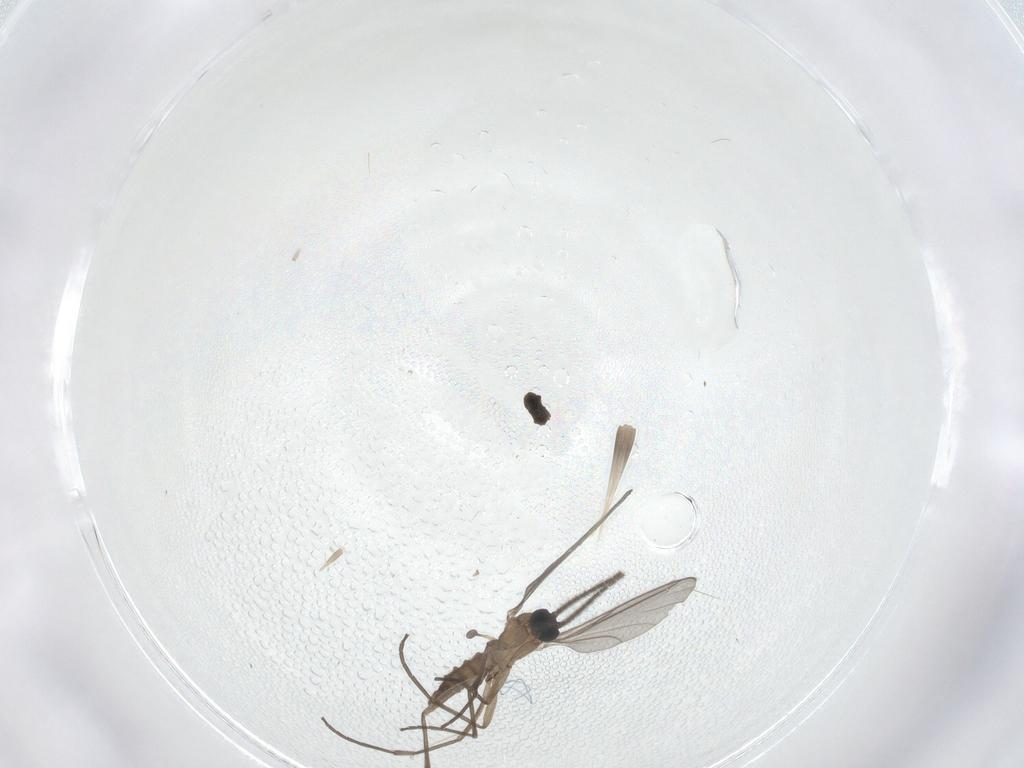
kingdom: Animalia
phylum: Arthropoda
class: Insecta
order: Diptera
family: Sciaridae
